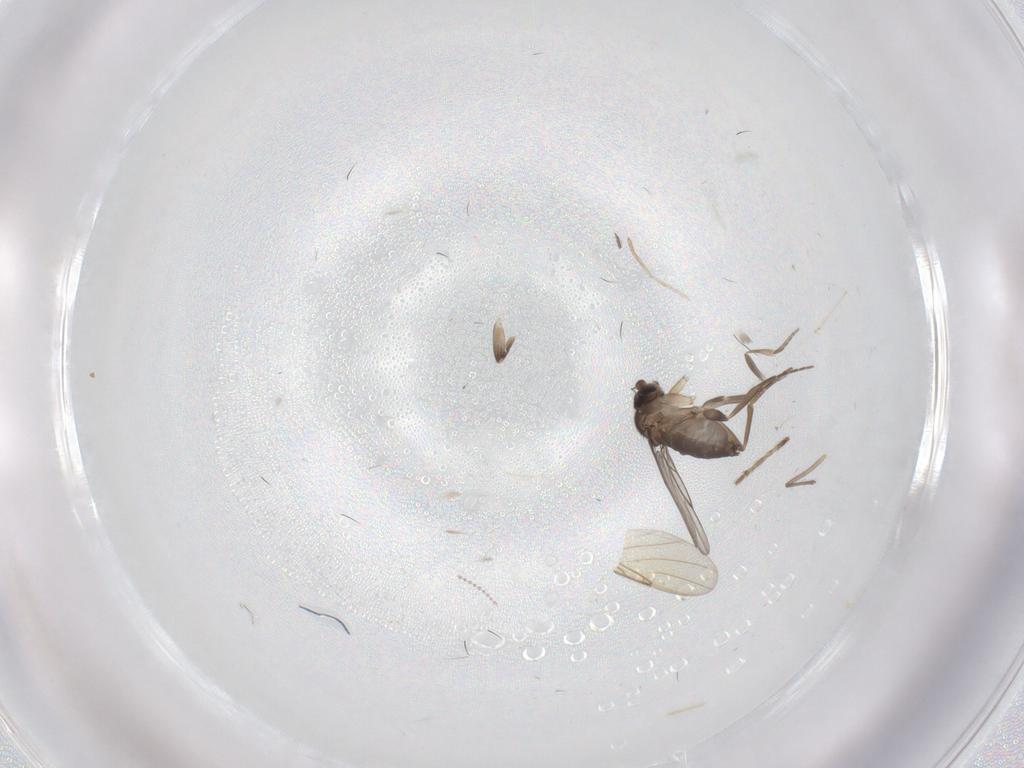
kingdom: Animalia
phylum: Arthropoda
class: Insecta
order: Diptera
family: Phoridae
